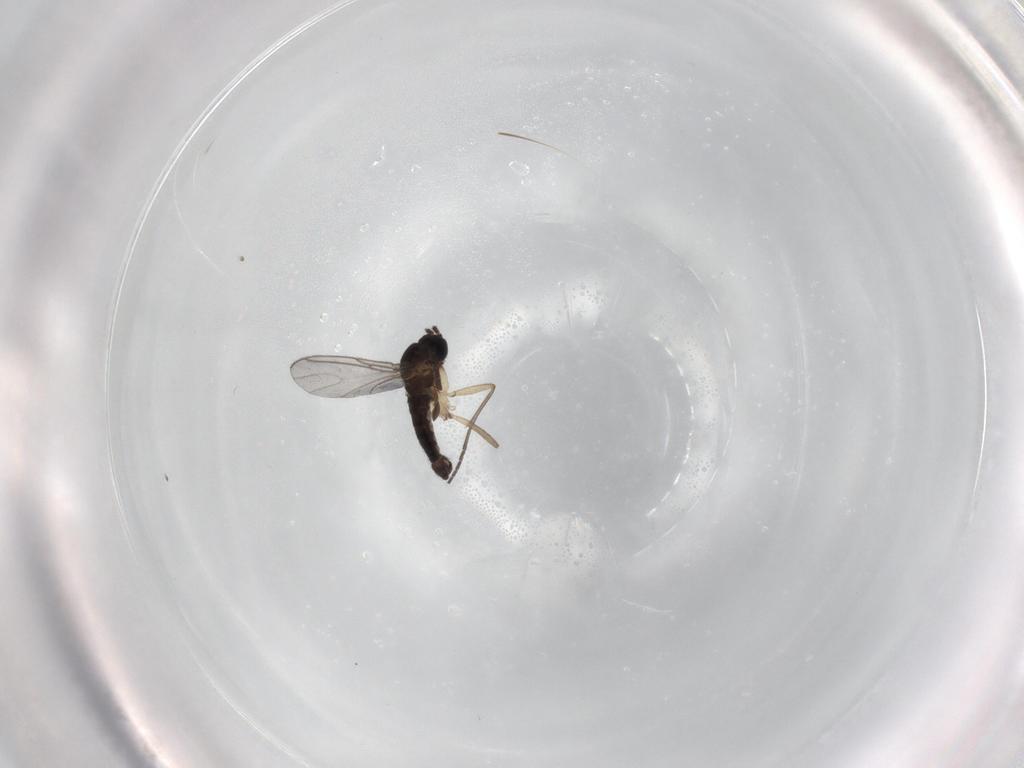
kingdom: Animalia
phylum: Arthropoda
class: Insecta
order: Diptera
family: Sciaridae
